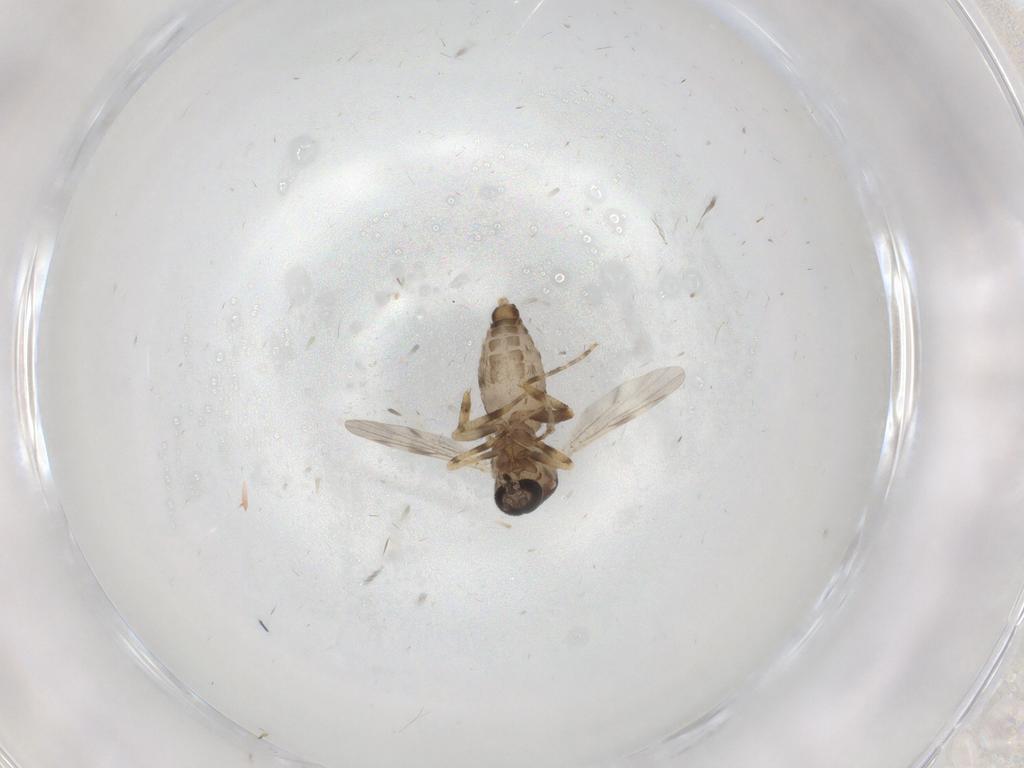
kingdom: Animalia
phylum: Arthropoda
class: Insecta
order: Diptera
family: Ceratopogonidae
